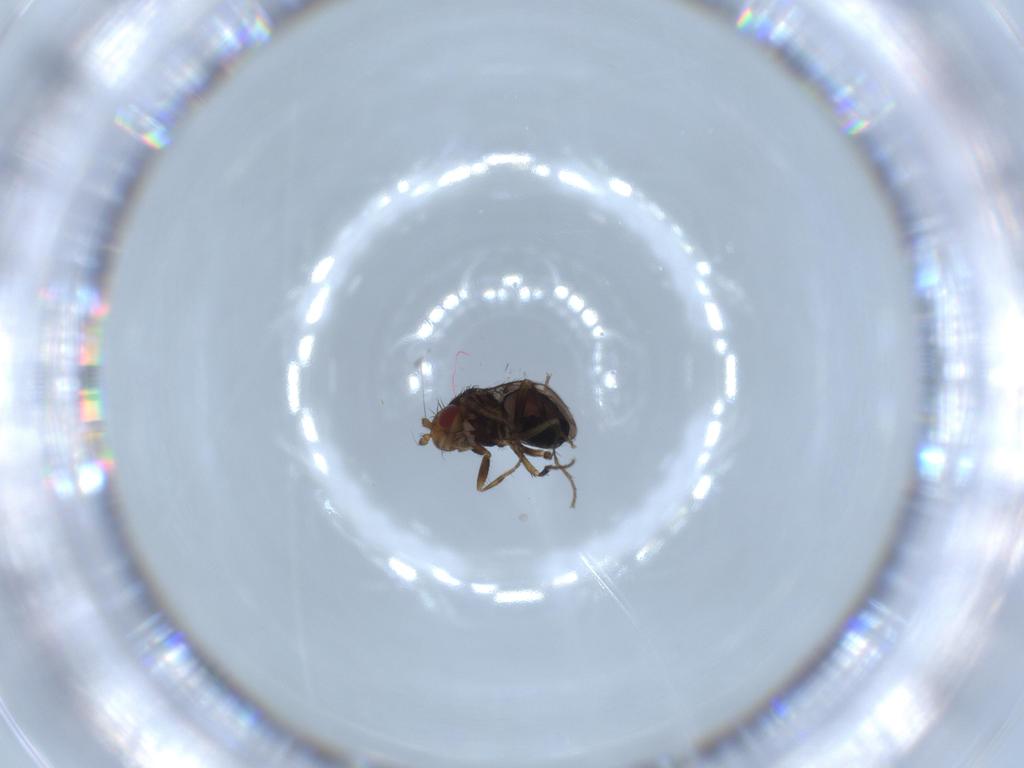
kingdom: Animalia
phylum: Arthropoda
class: Insecta
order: Diptera
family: Sphaeroceridae
